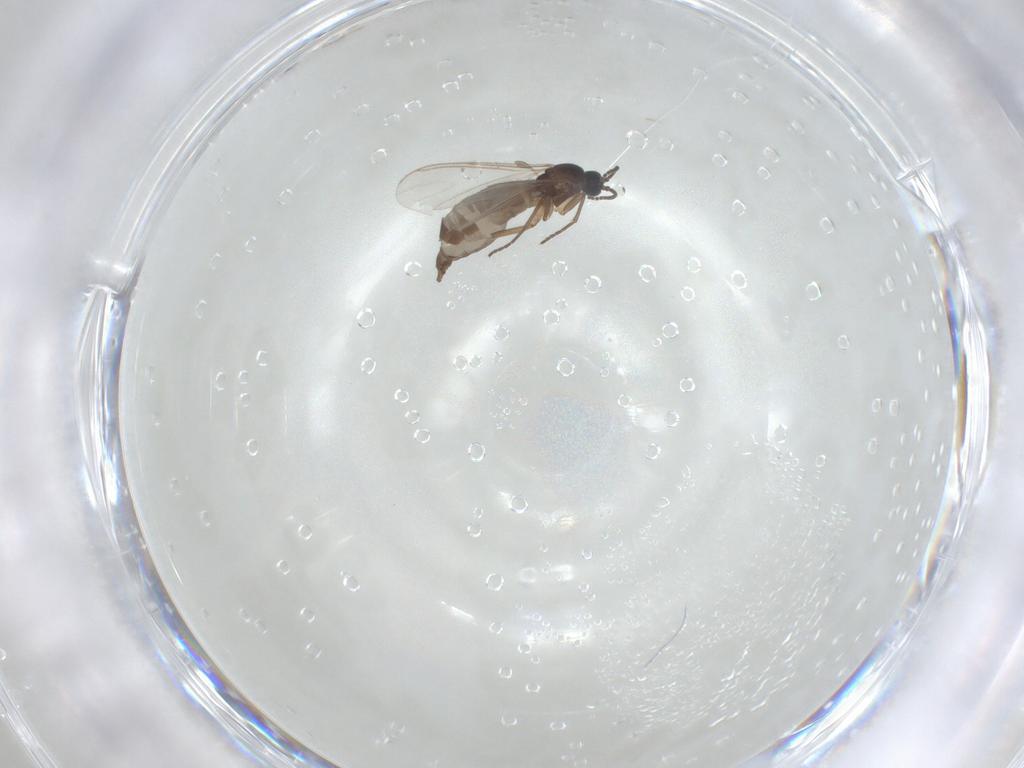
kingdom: Animalia
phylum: Arthropoda
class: Insecta
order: Diptera
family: Sciaridae
